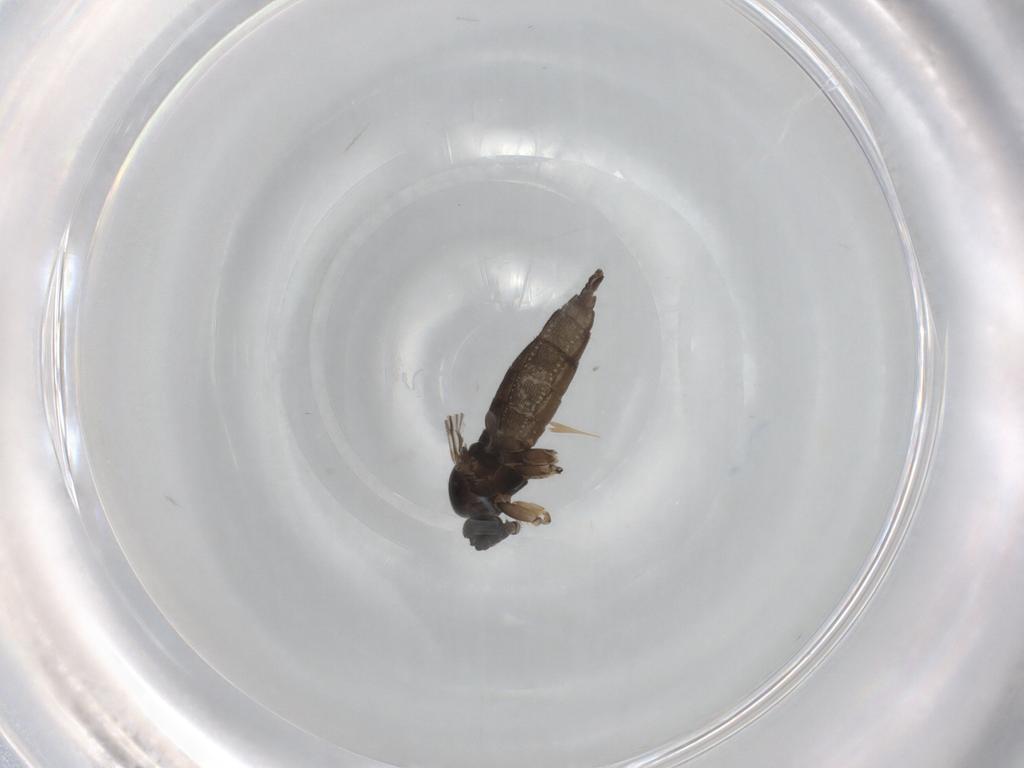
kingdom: Animalia
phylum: Arthropoda
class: Insecta
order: Diptera
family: Sciaridae
